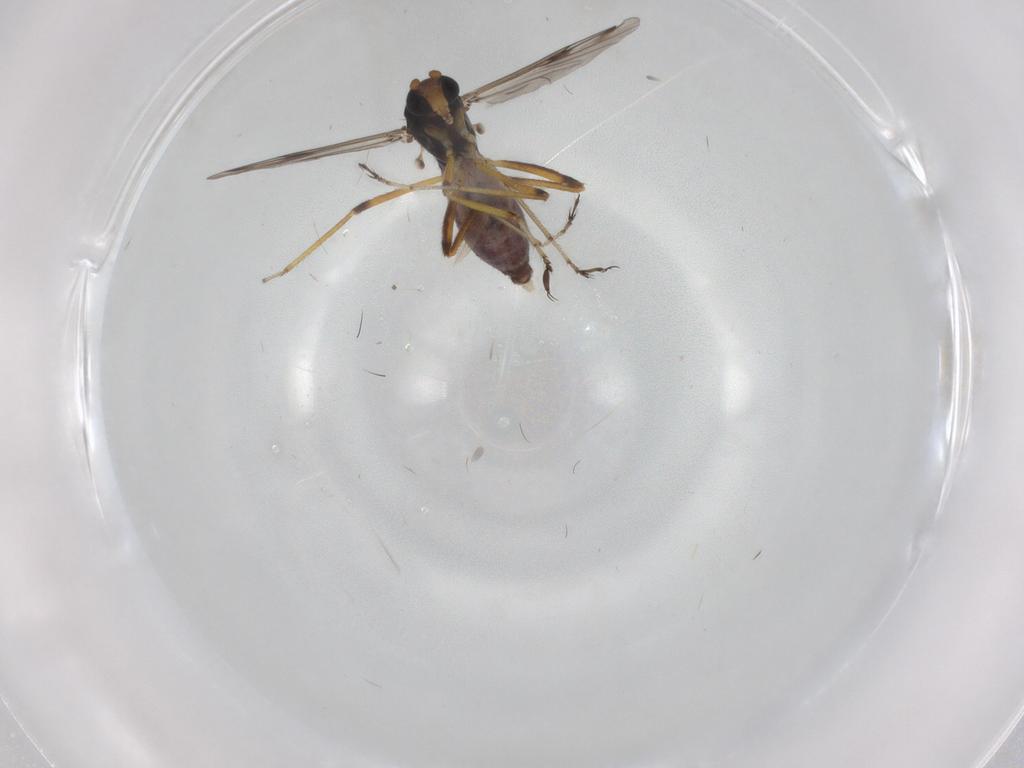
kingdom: Animalia
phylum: Arthropoda
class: Insecta
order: Diptera
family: Ceratopogonidae
